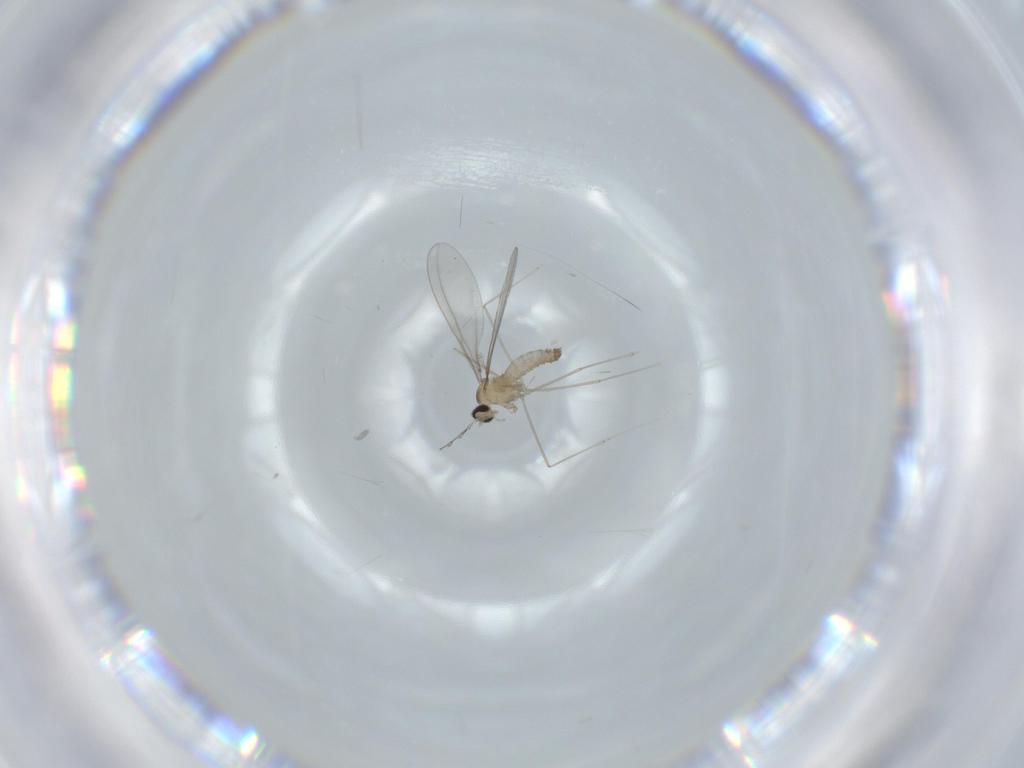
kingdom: Animalia
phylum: Arthropoda
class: Insecta
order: Diptera
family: Cecidomyiidae
